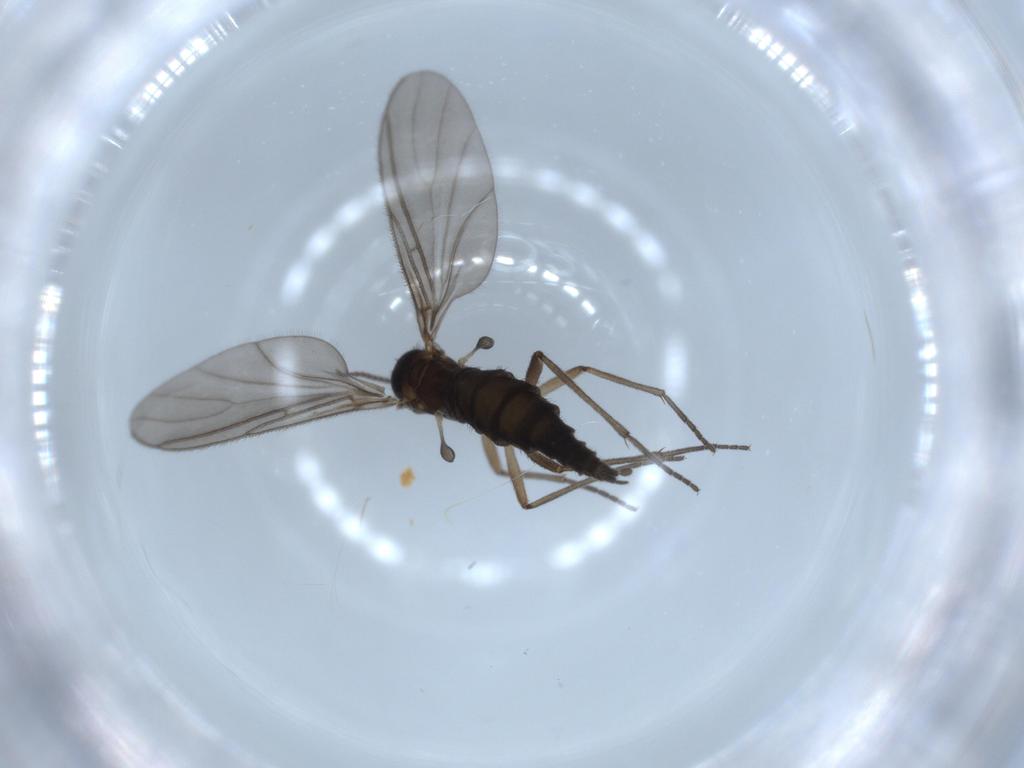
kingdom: Animalia
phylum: Arthropoda
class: Insecta
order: Diptera
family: Sciaridae
